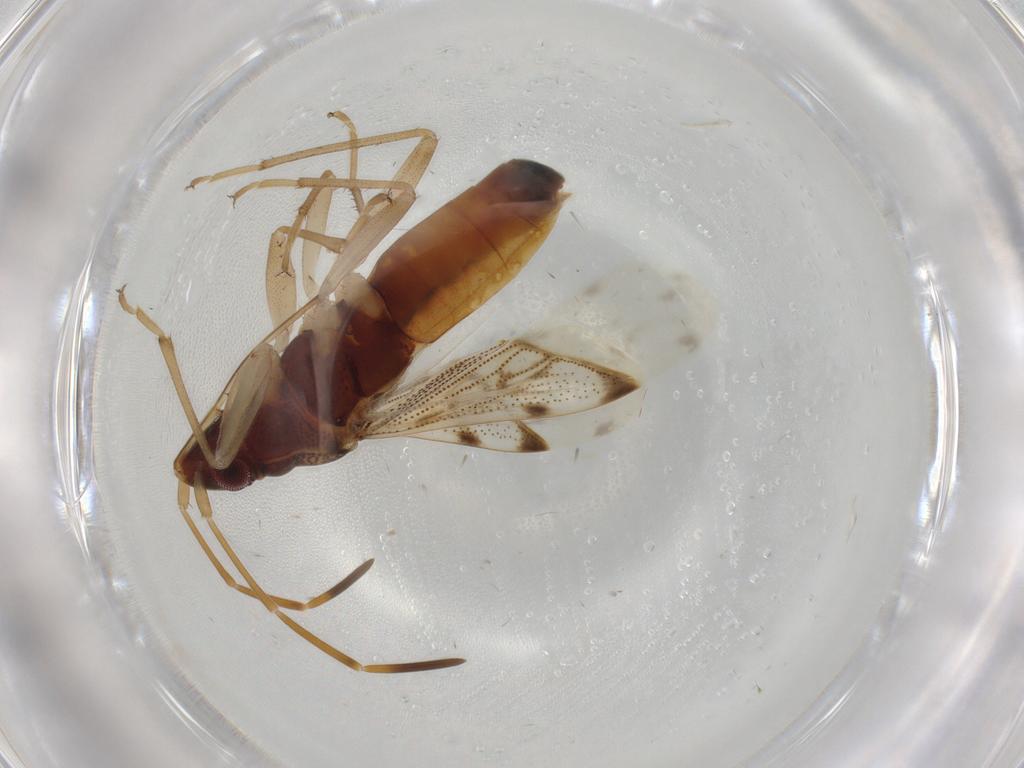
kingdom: Animalia
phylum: Arthropoda
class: Insecta
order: Hemiptera
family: Rhyparochromidae
